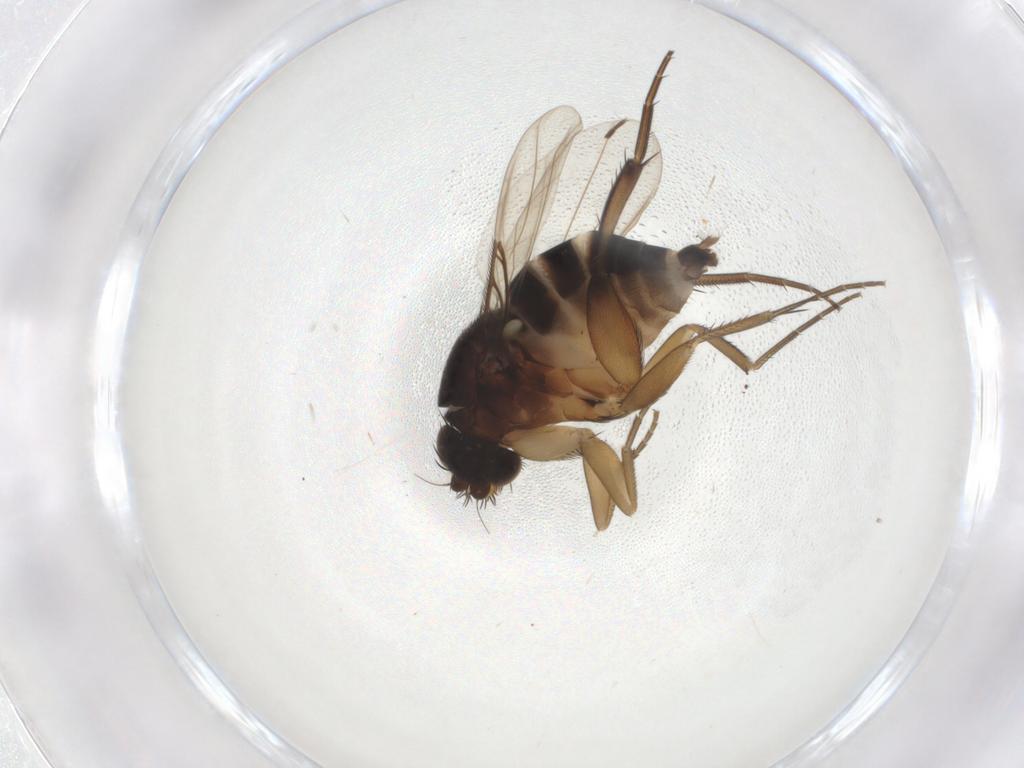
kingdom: Animalia
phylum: Arthropoda
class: Insecta
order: Diptera
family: Phoridae
